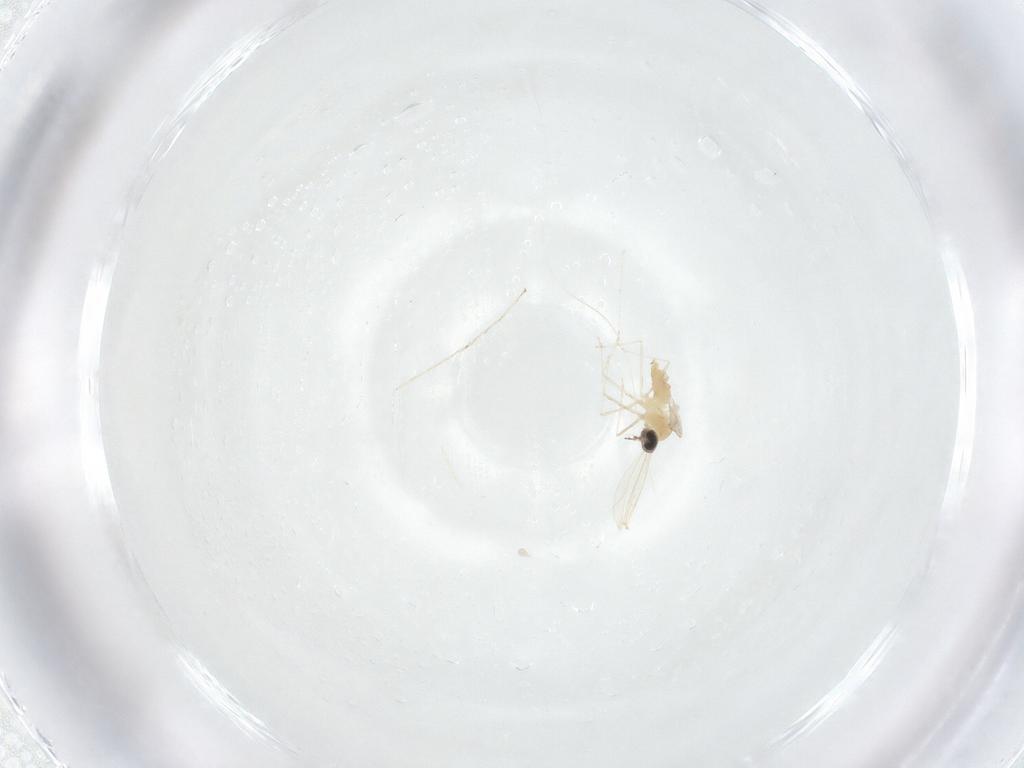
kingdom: Animalia
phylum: Arthropoda
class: Insecta
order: Diptera
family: Cecidomyiidae
